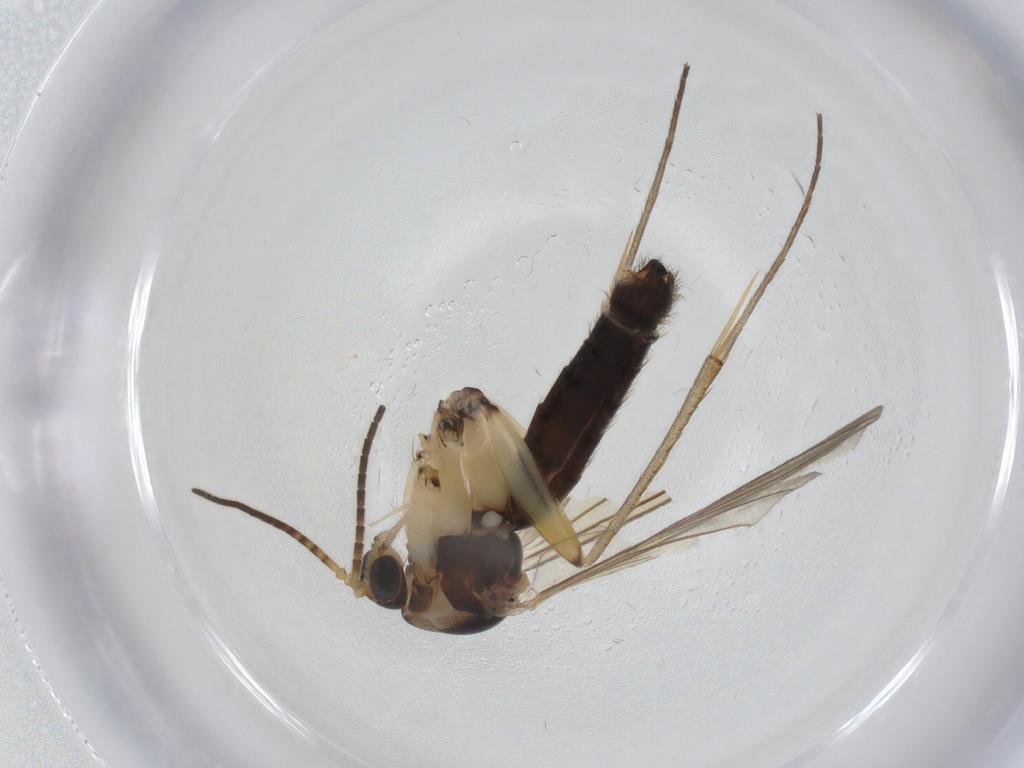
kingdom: Animalia
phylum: Arthropoda
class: Insecta
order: Diptera
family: Mycetophilidae
